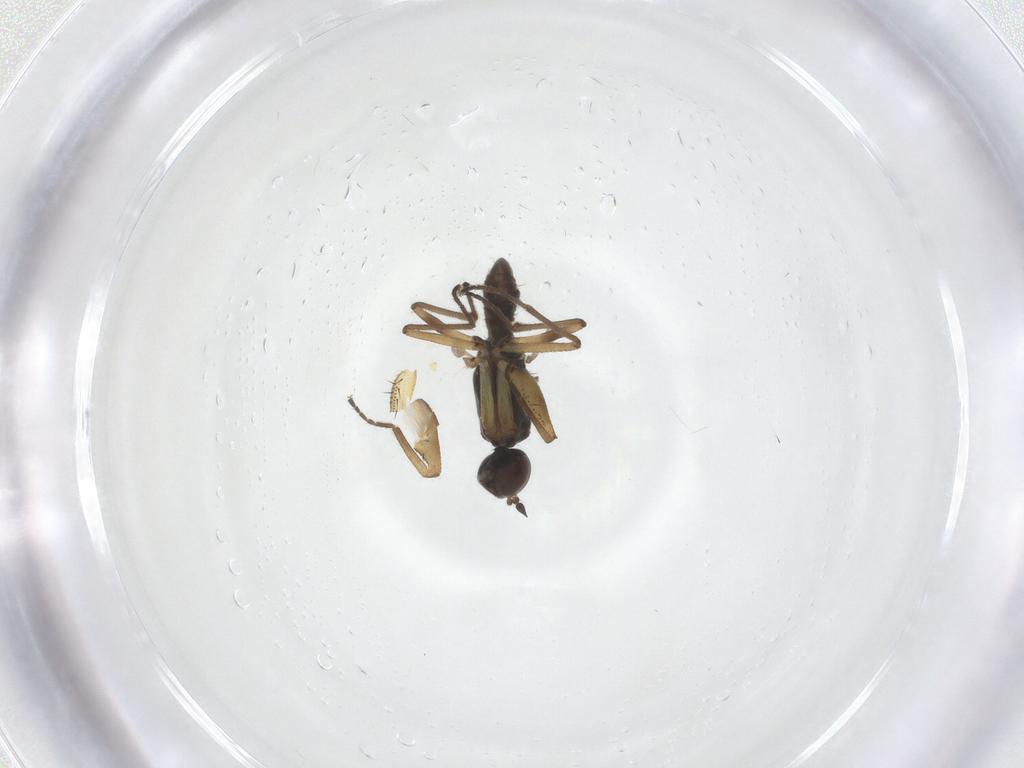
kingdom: Animalia
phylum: Arthropoda
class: Insecta
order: Diptera
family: Empididae
